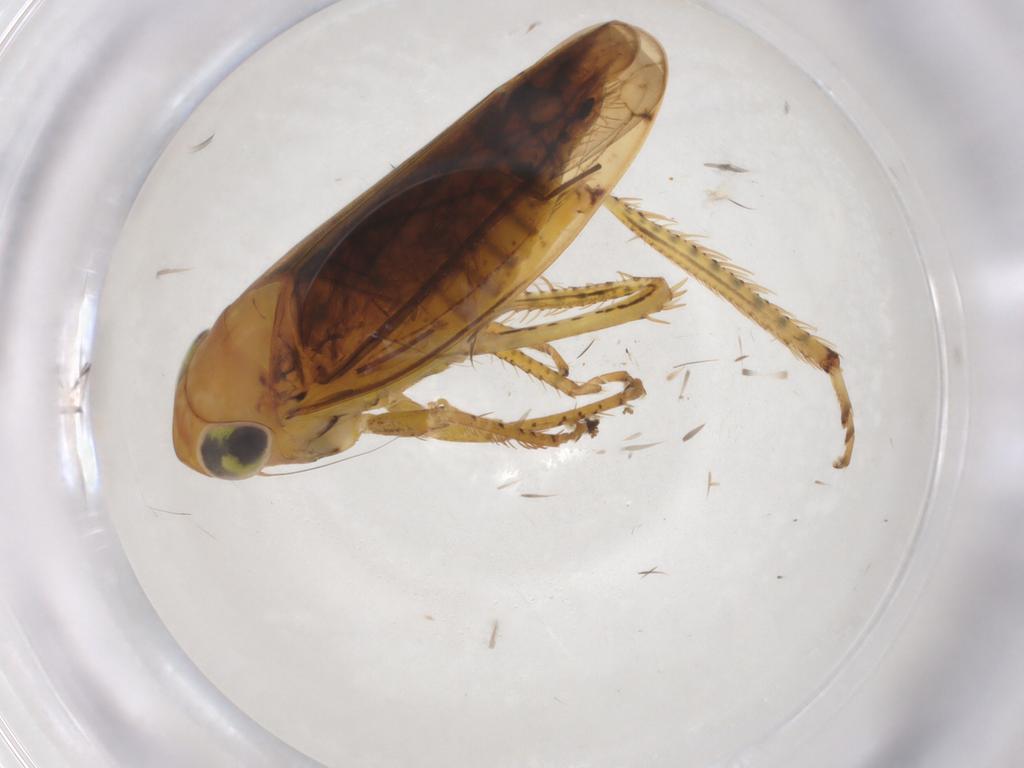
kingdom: Animalia
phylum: Arthropoda
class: Insecta
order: Hemiptera
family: Cicadellidae
